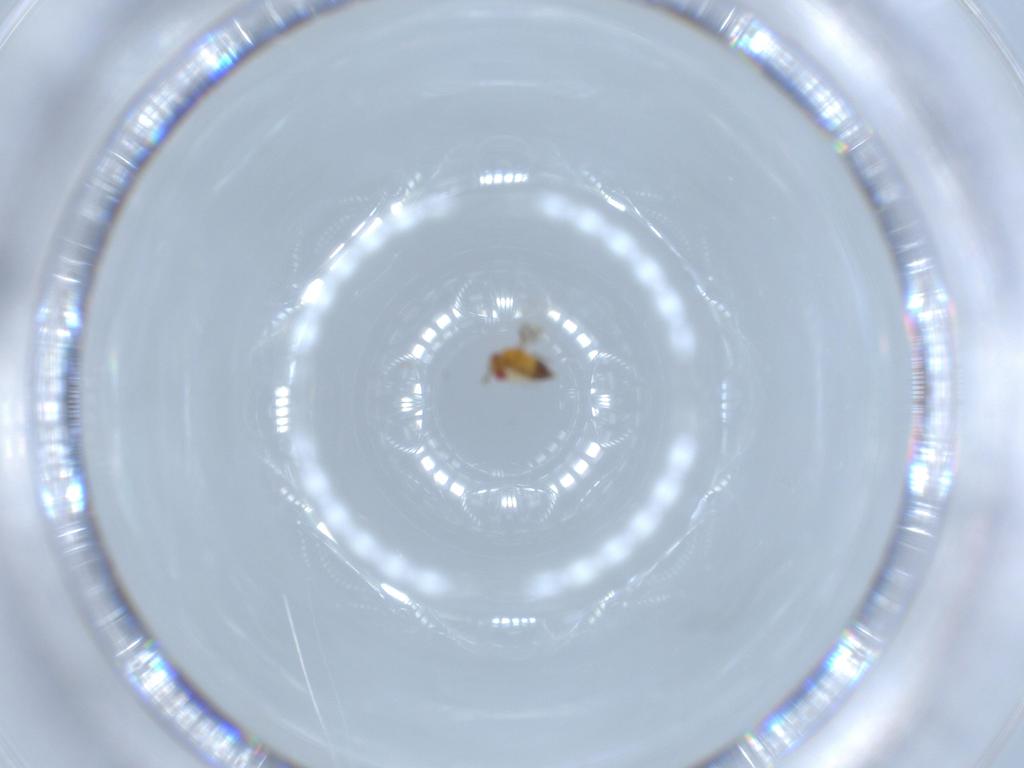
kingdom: Animalia
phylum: Arthropoda
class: Insecta
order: Hymenoptera
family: Trichogrammatidae
